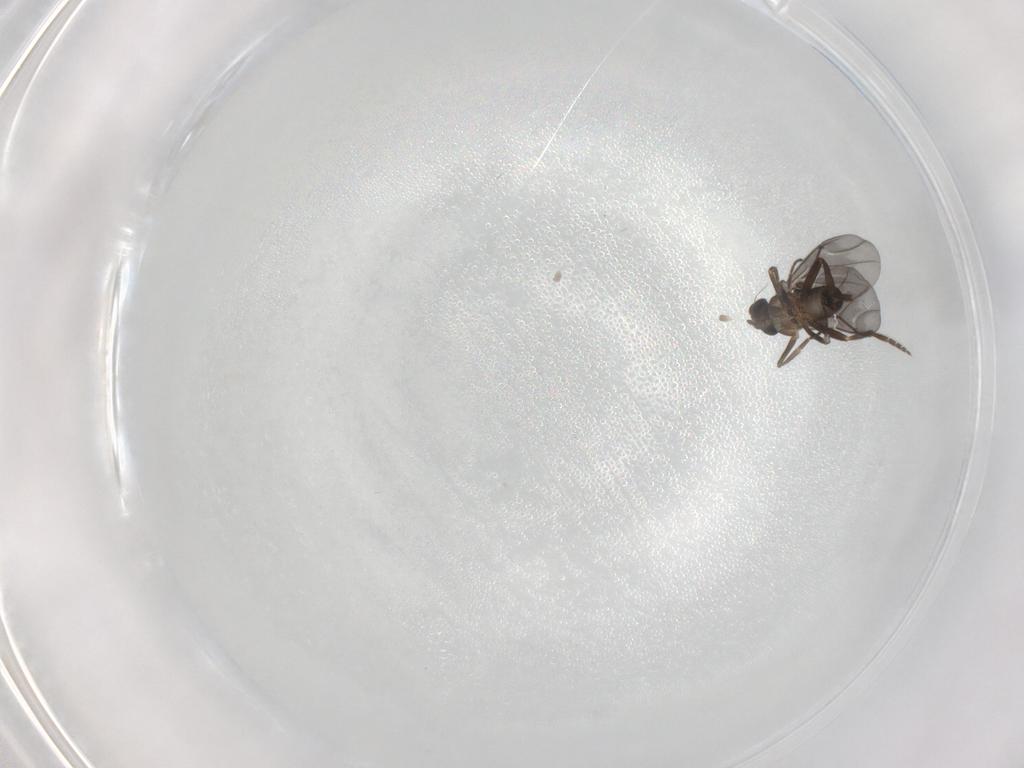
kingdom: Animalia
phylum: Arthropoda
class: Insecta
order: Diptera
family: Phoridae
